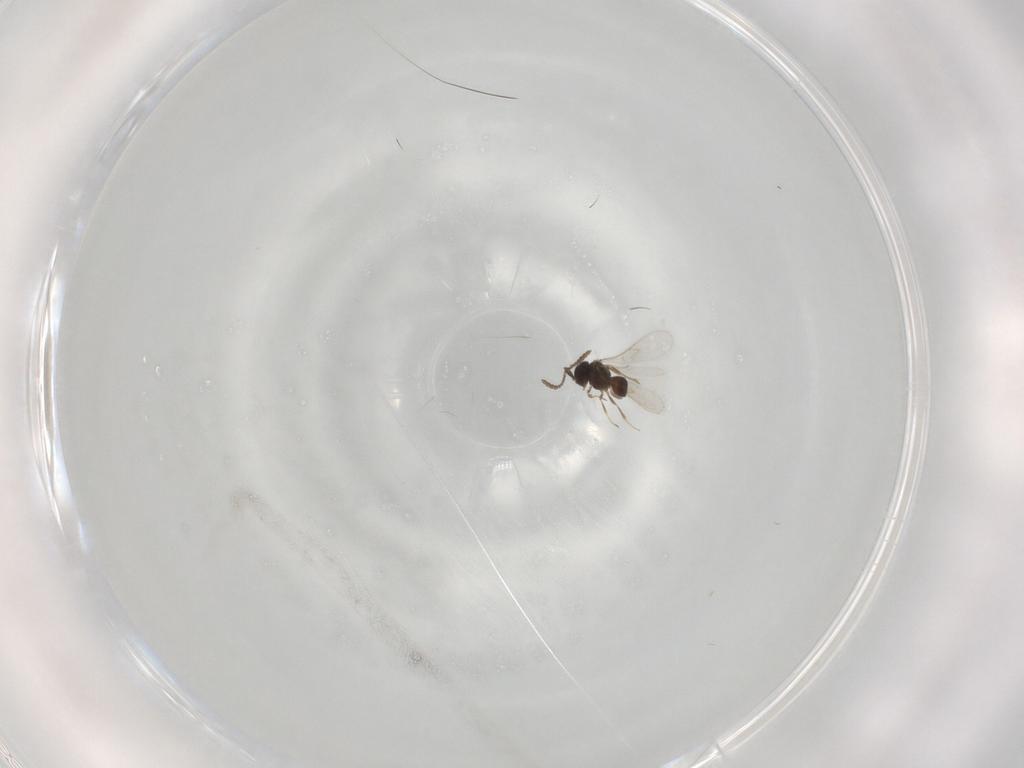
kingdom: Animalia
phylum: Arthropoda
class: Insecta
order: Hymenoptera
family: Scelionidae
